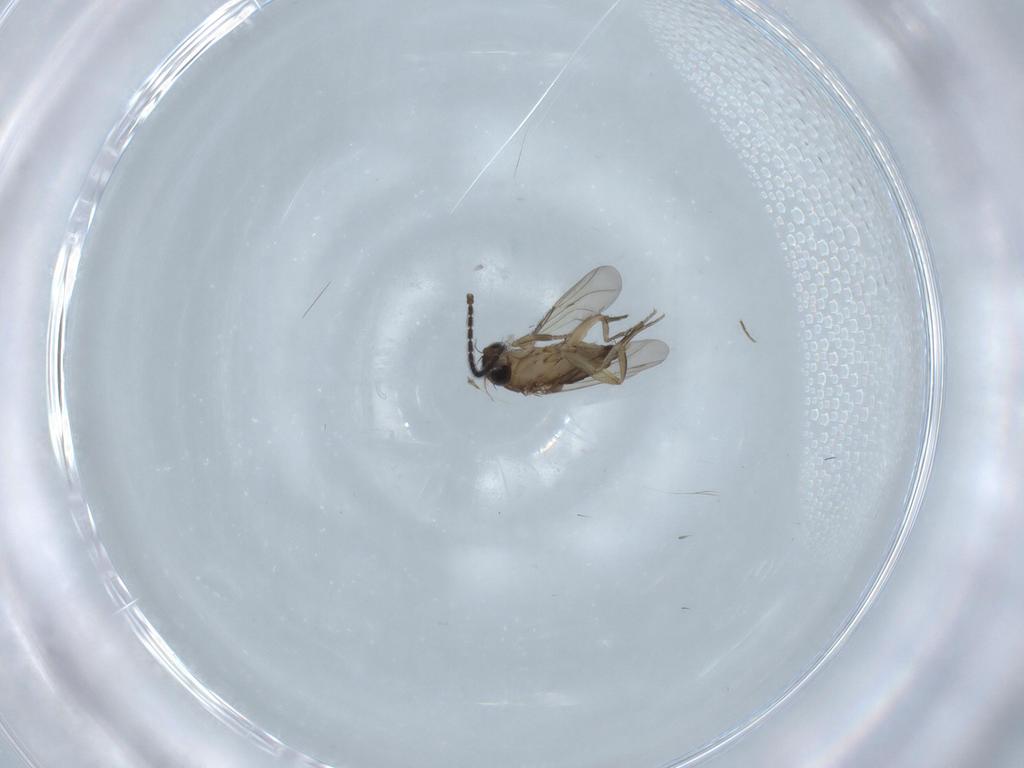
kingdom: Animalia
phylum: Arthropoda
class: Insecta
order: Diptera
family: Phoridae
